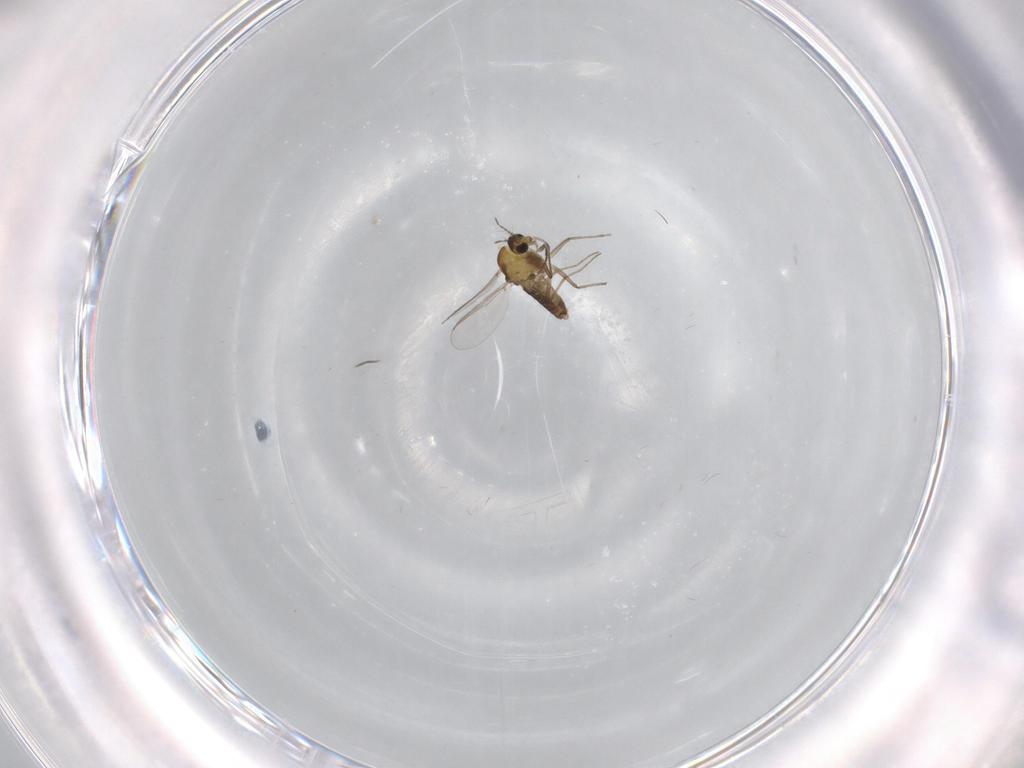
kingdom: Animalia
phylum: Arthropoda
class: Insecta
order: Diptera
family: Chironomidae
